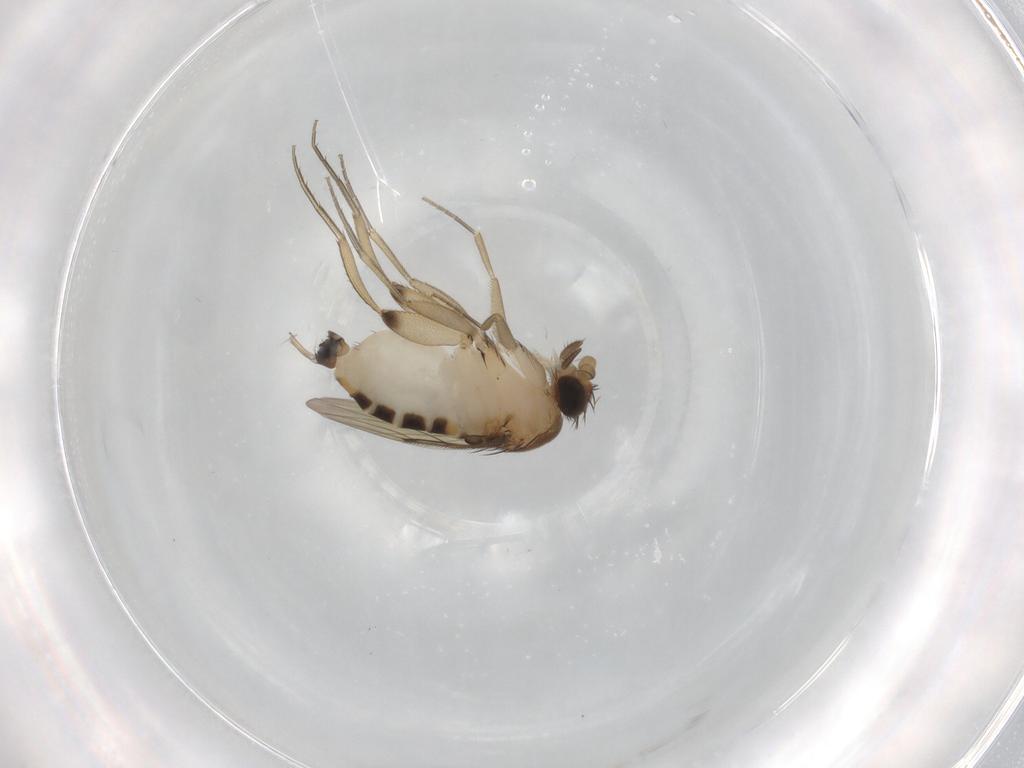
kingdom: Animalia
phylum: Arthropoda
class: Insecta
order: Diptera
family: Phoridae
